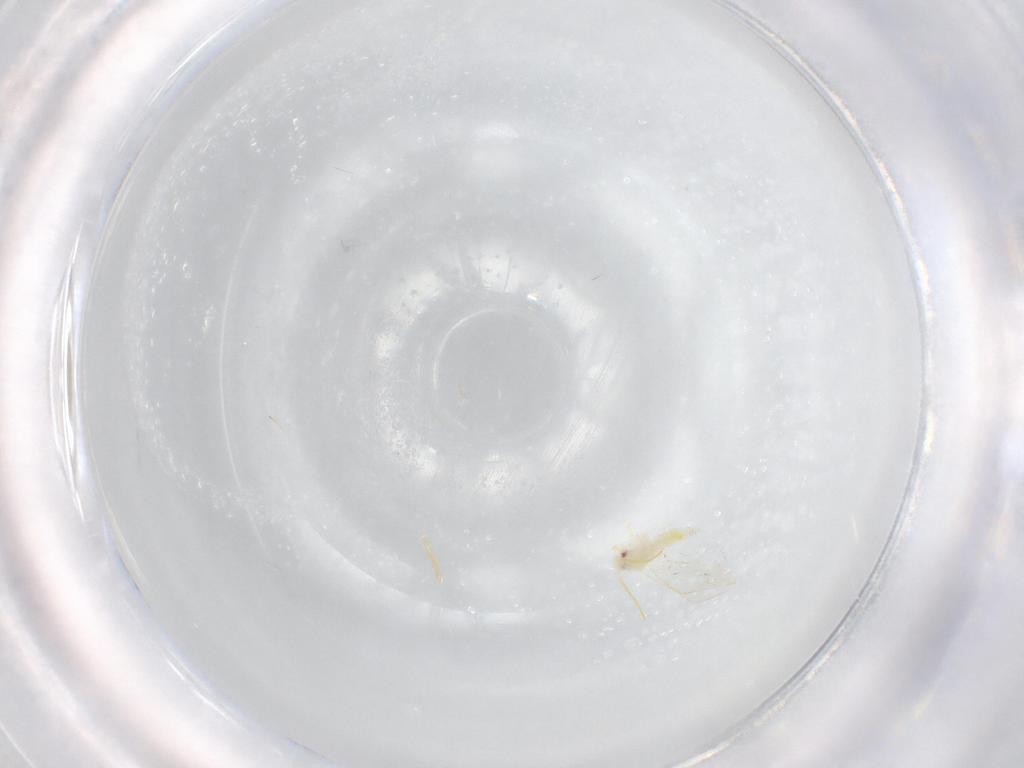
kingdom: Animalia
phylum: Arthropoda
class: Insecta
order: Hemiptera
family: Aleyrodidae
